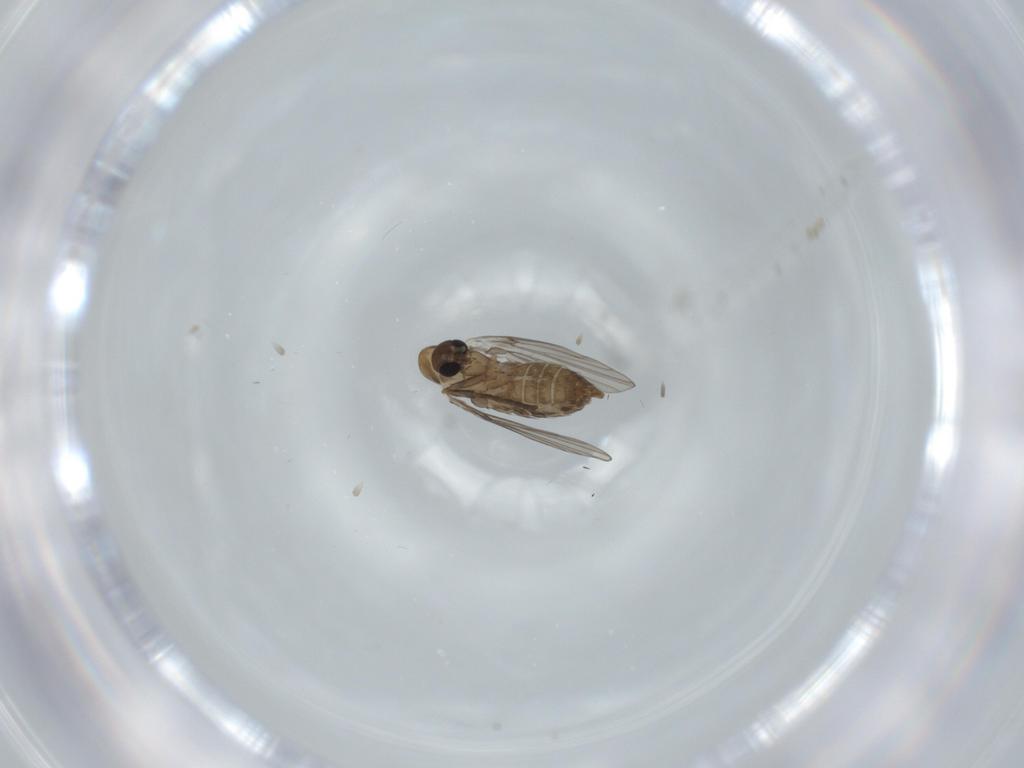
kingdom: Animalia
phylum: Arthropoda
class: Insecta
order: Diptera
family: Psychodidae
